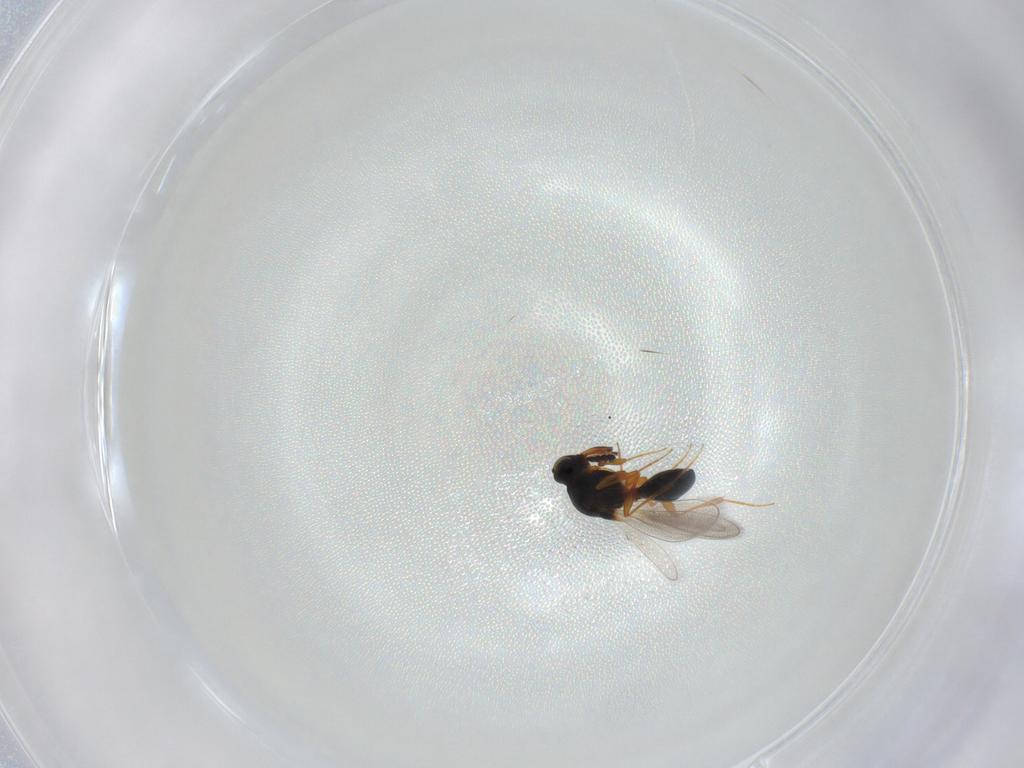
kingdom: Animalia
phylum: Arthropoda
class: Insecta
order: Hymenoptera
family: Platygastridae
